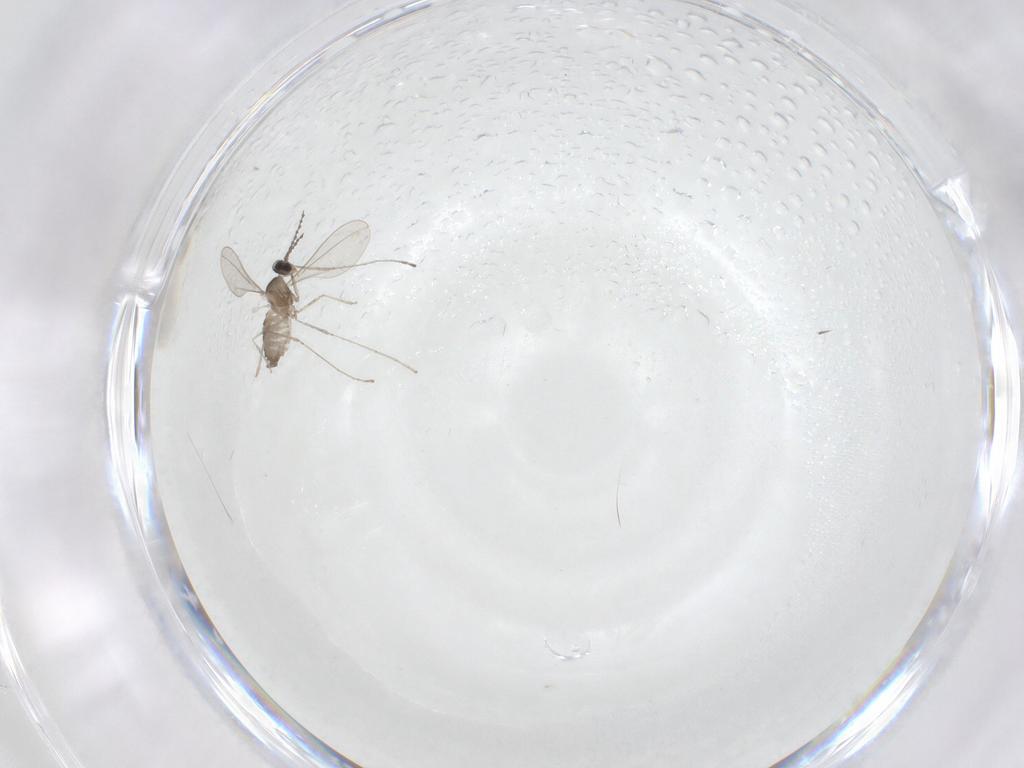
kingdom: Animalia
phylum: Arthropoda
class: Insecta
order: Diptera
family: Cecidomyiidae
